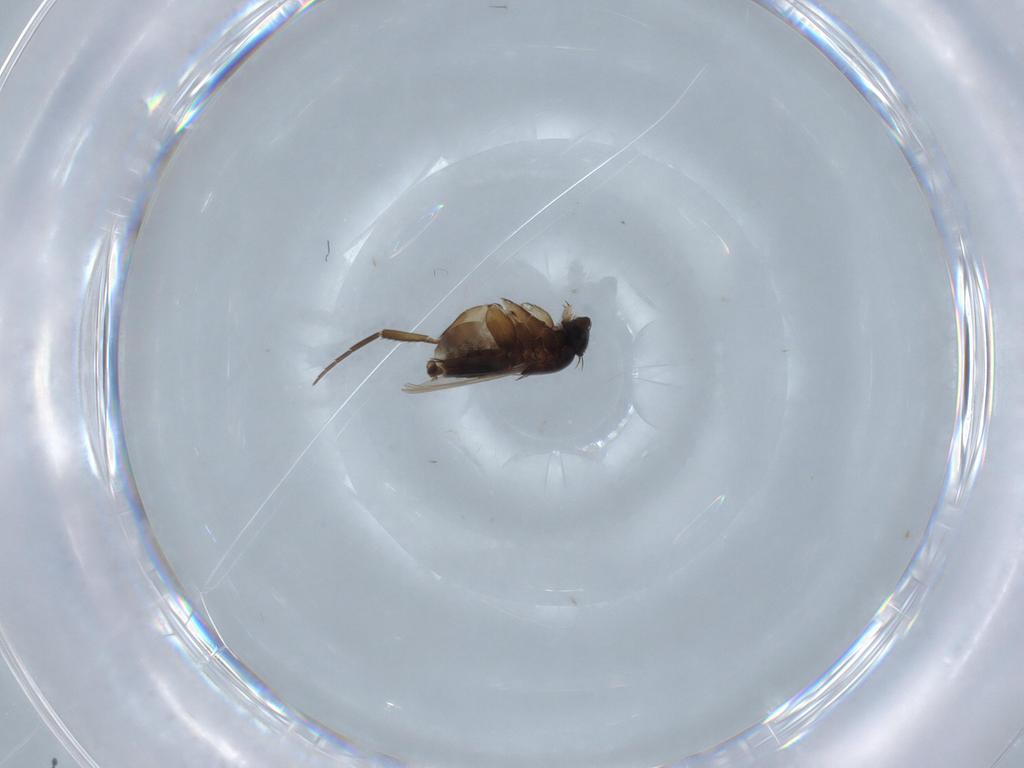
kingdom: Animalia
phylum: Arthropoda
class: Insecta
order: Diptera
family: Phoridae
